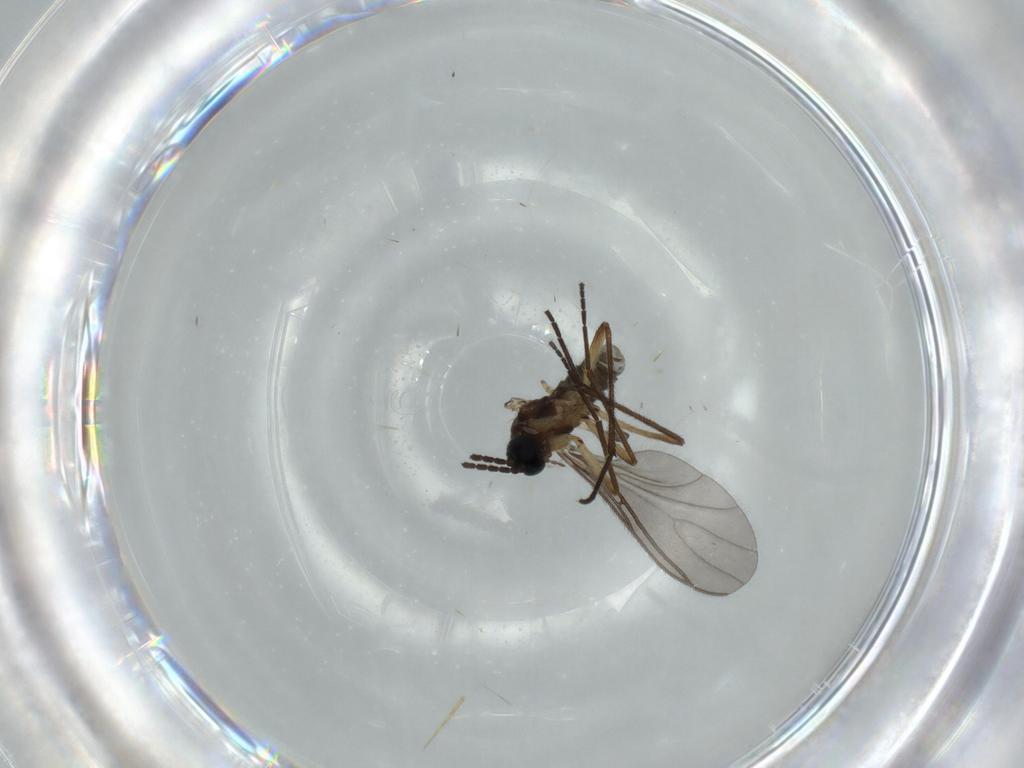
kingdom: Animalia
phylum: Arthropoda
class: Insecta
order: Diptera
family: Sciaridae
